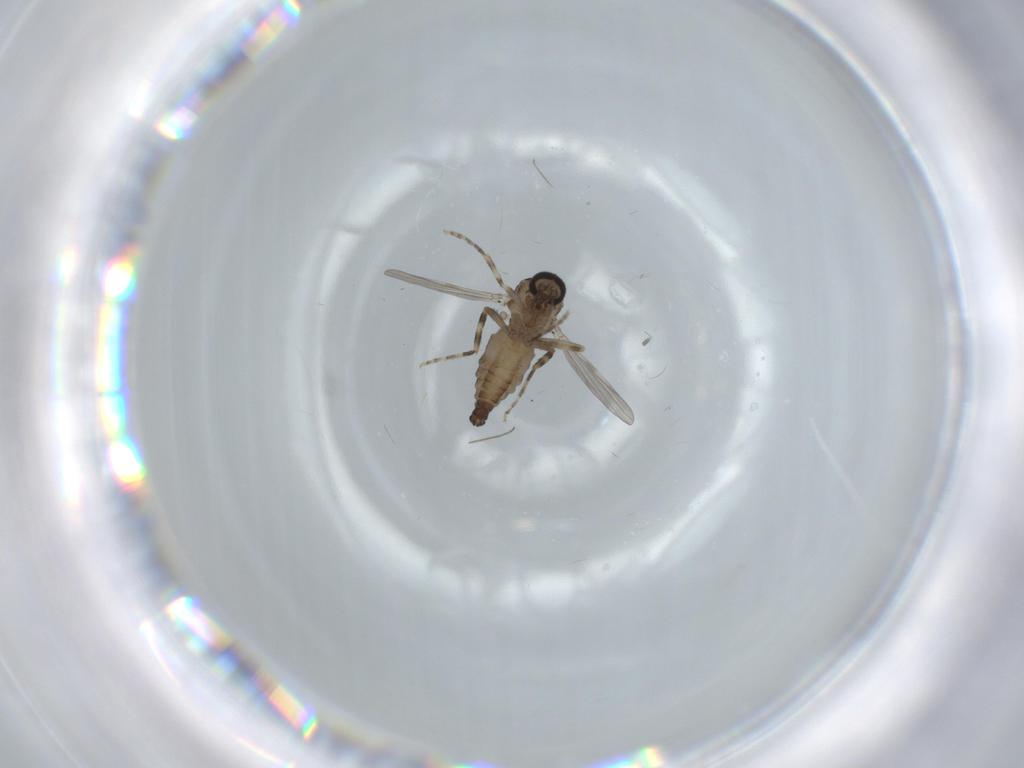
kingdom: Animalia
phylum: Arthropoda
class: Insecta
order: Diptera
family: Ceratopogonidae
